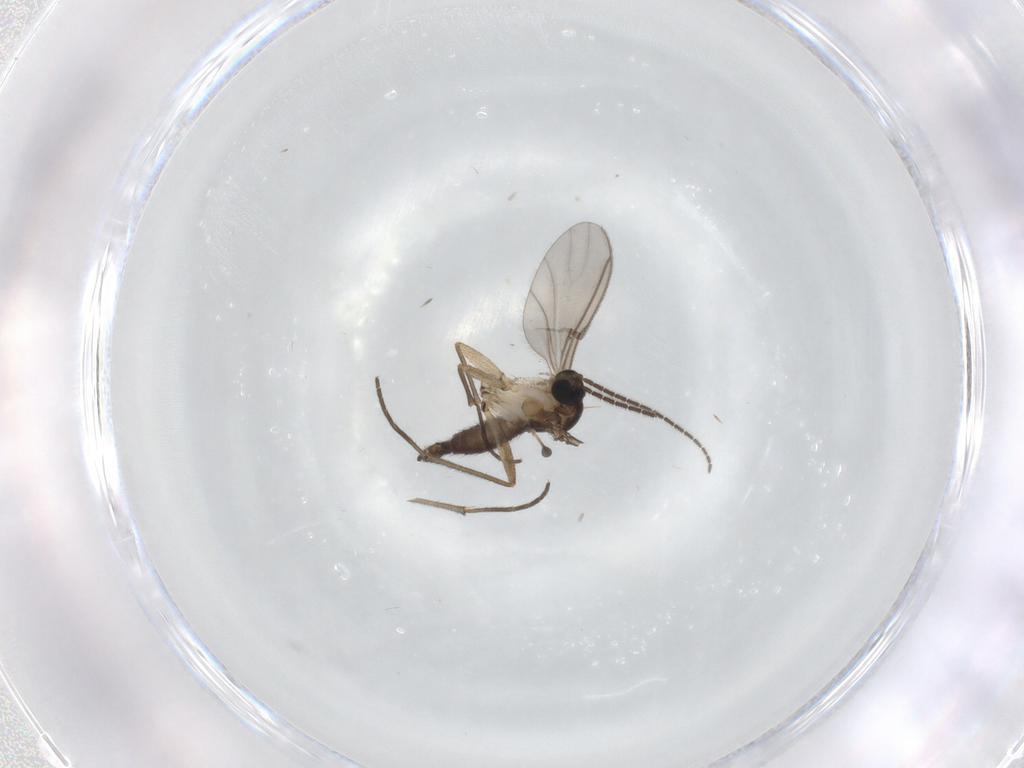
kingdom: Animalia
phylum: Arthropoda
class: Insecta
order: Diptera
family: Sciaridae
